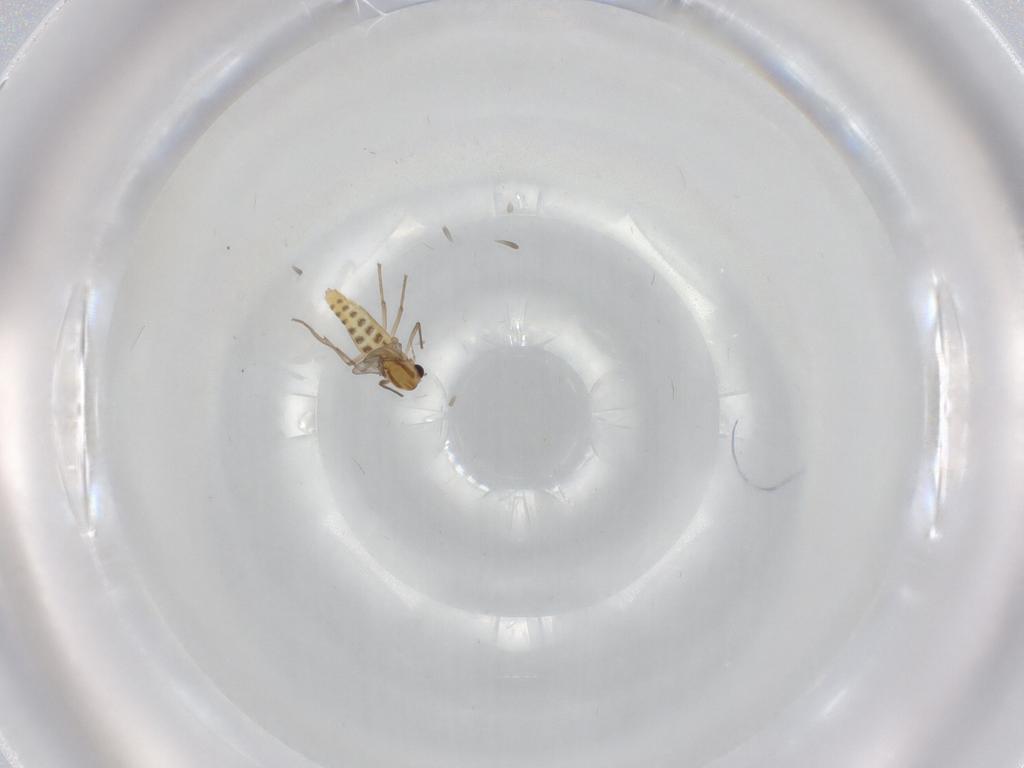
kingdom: Animalia
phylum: Arthropoda
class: Insecta
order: Diptera
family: Chironomidae
